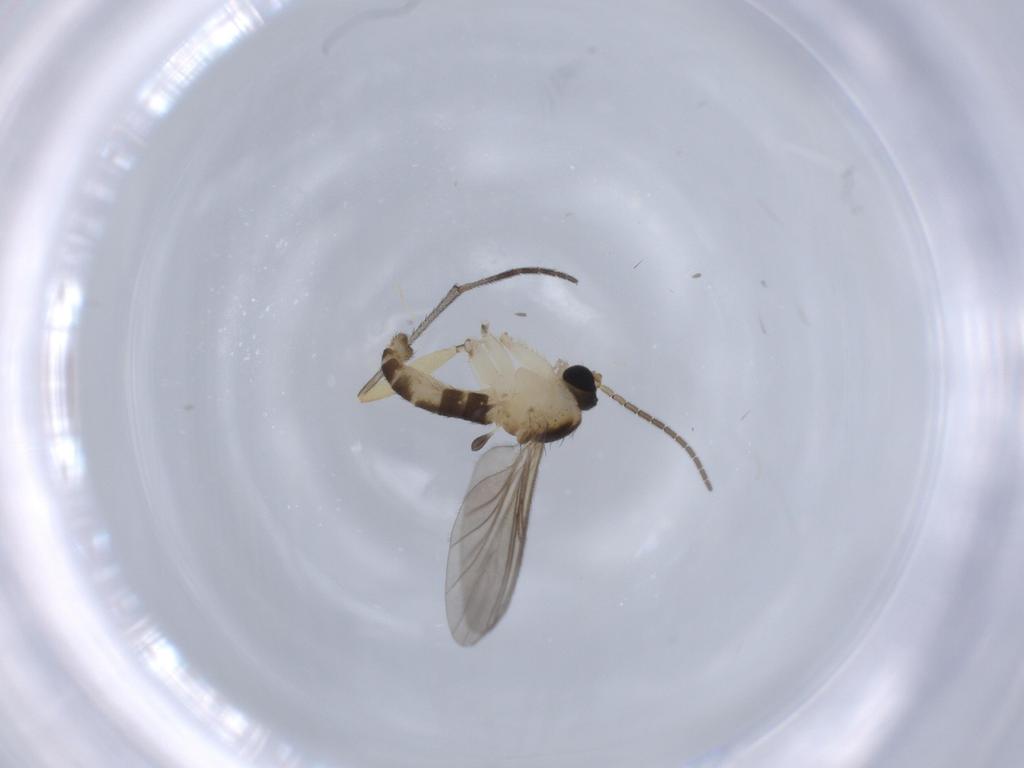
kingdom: Animalia
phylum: Arthropoda
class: Insecta
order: Diptera
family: Sciaridae
